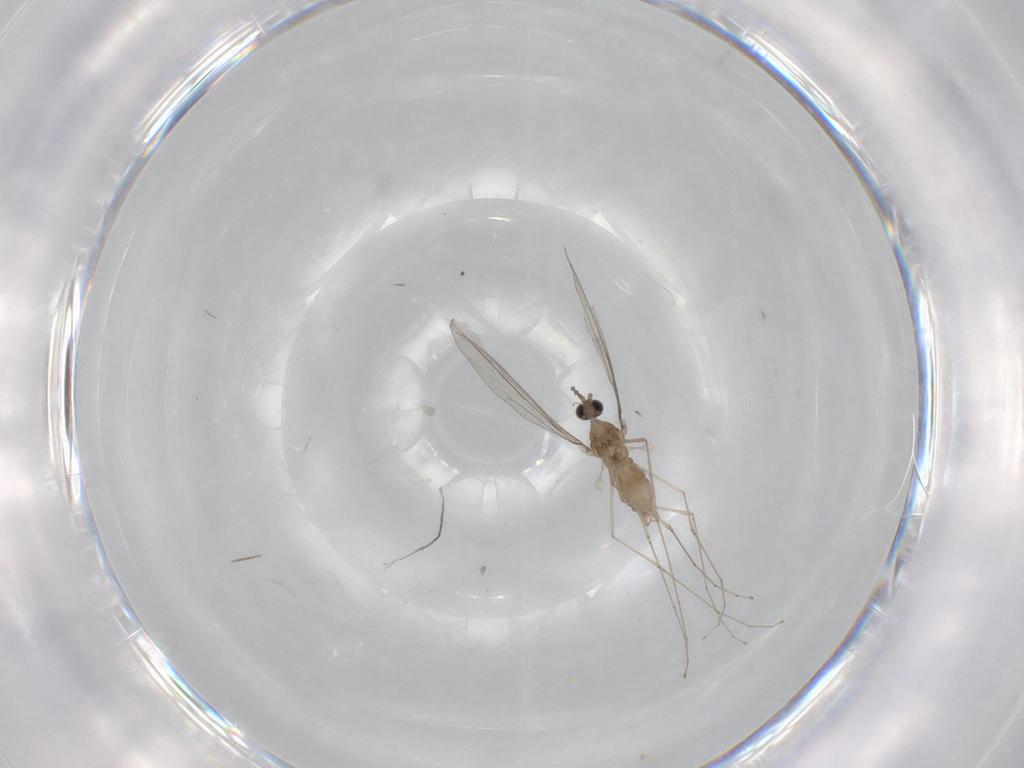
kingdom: Animalia
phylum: Arthropoda
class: Insecta
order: Diptera
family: Cecidomyiidae
